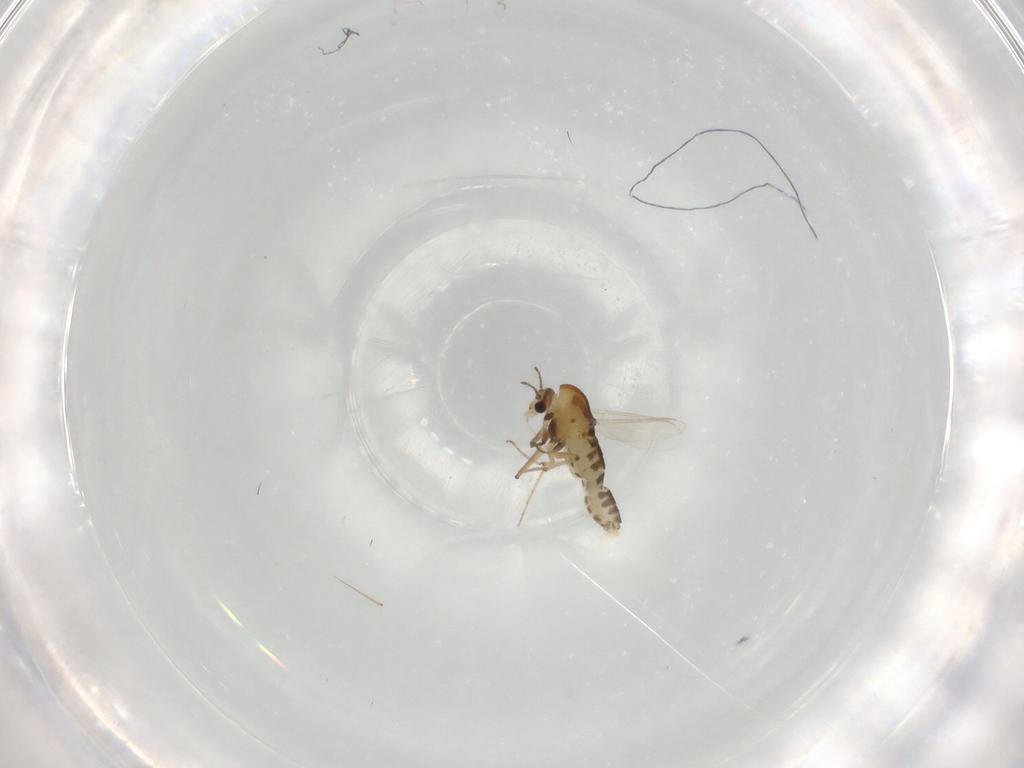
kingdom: Animalia
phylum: Arthropoda
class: Insecta
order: Diptera
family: Chironomidae
